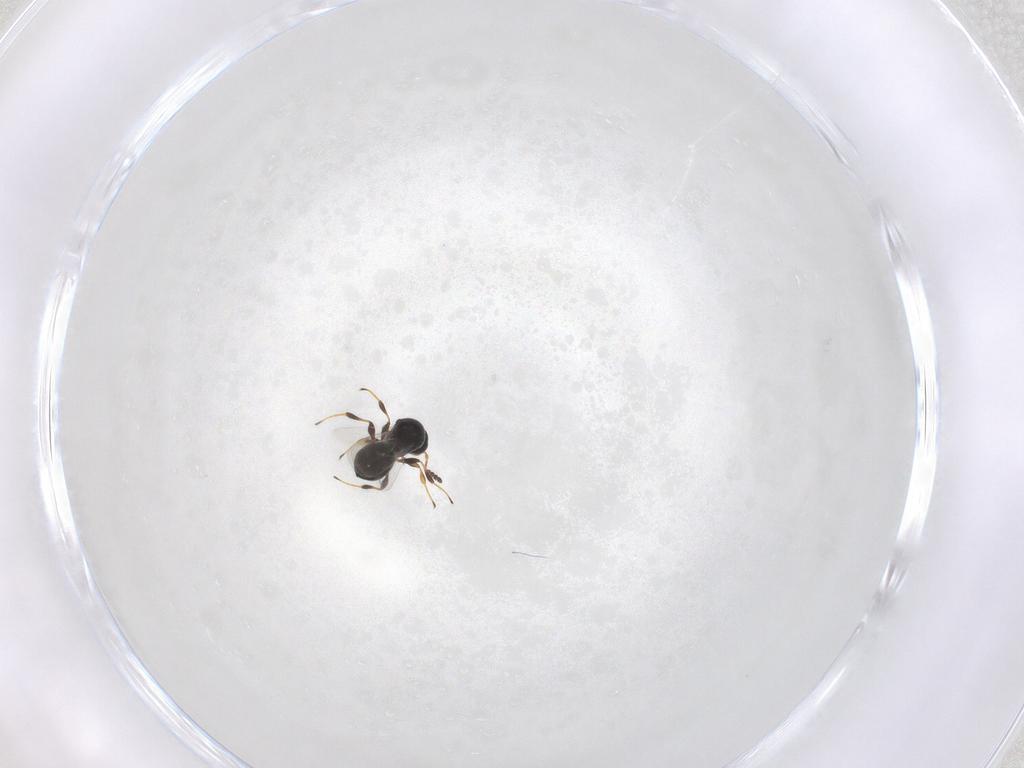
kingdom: Animalia
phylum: Arthropoda
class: Insecta
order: Hymenoptera
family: Platygastridae
